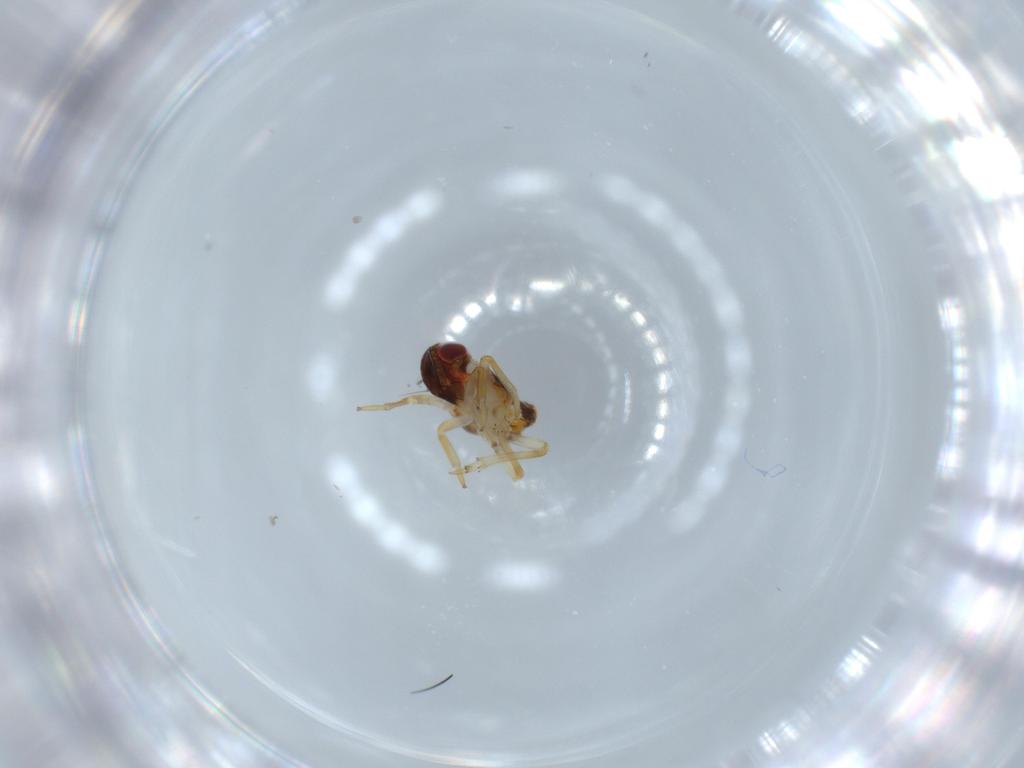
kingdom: Animalia
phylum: Arthropoda
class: Insecta
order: Hemiptera
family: Issidae
